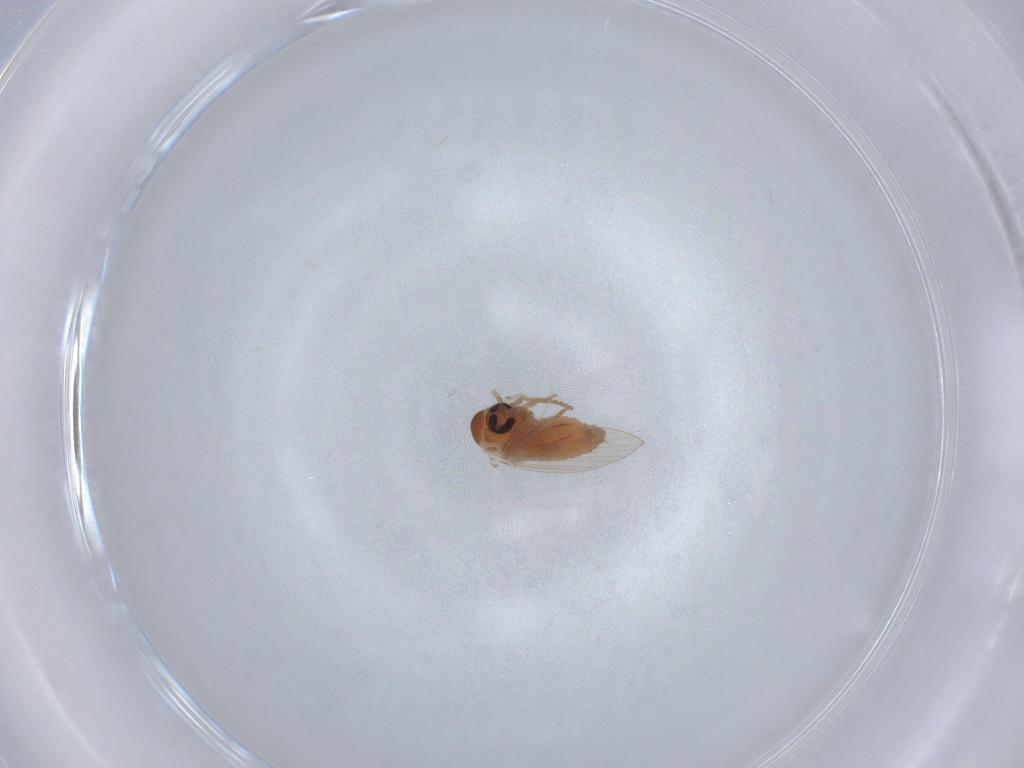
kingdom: Animalia
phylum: Arthropoda
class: Insecta
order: Diptera
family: Psychodidae
